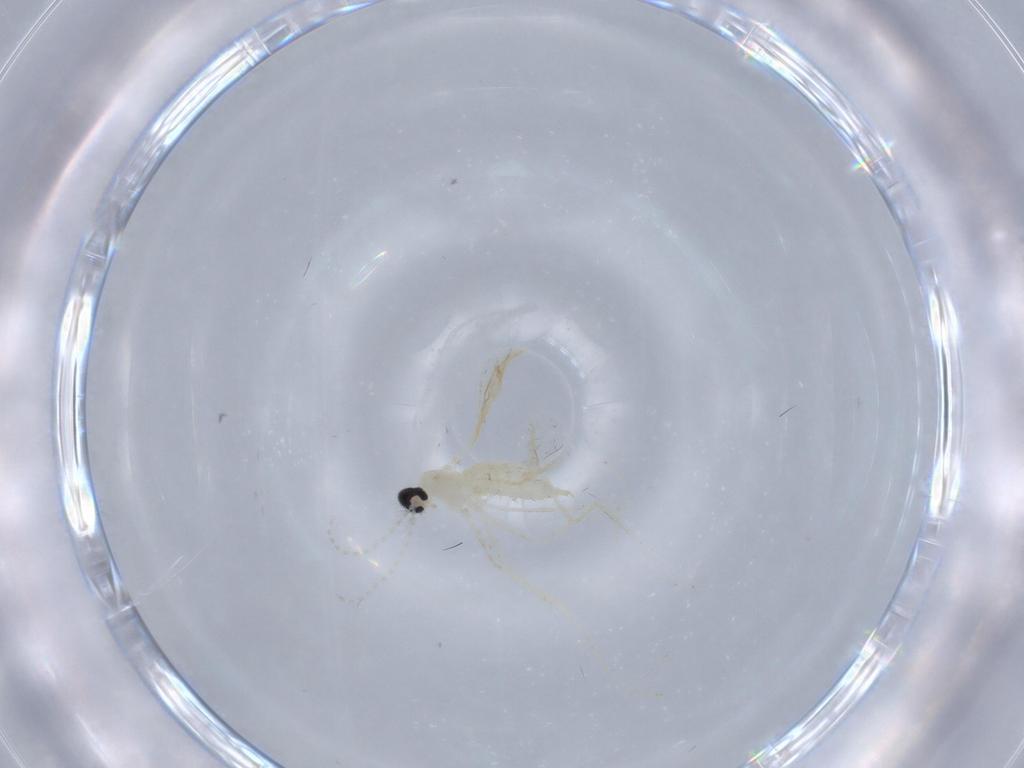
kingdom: Animalia
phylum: Arthropoda
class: Insecta
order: Diptera
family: Cecidomyiidae
